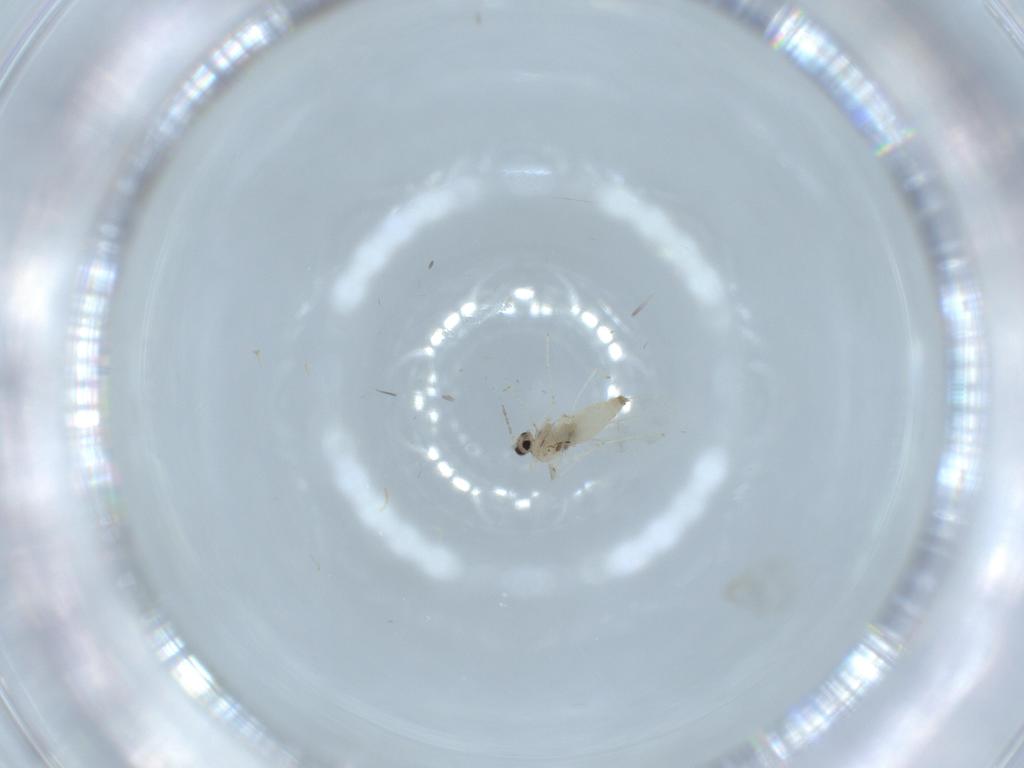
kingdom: Animalia
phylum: Arthropoda
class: Insecta
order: Diptera
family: Cecidomyiidae
